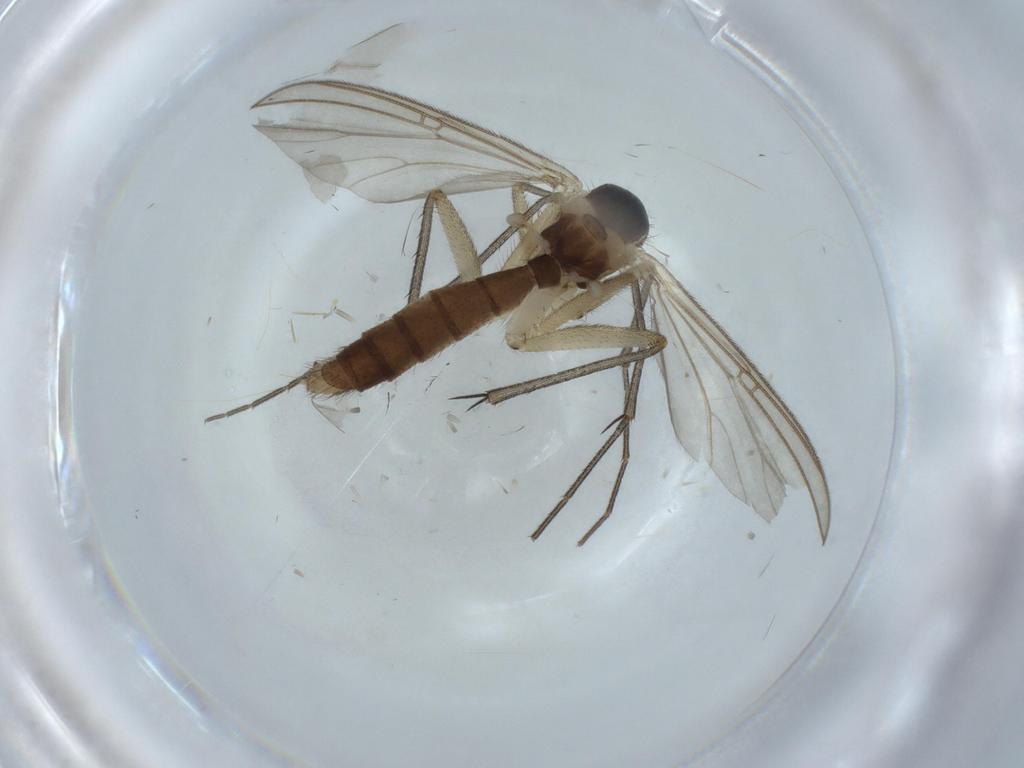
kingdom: Animalia
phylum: Arthropoda
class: Insecta
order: Diptera
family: Mycetophilidae
